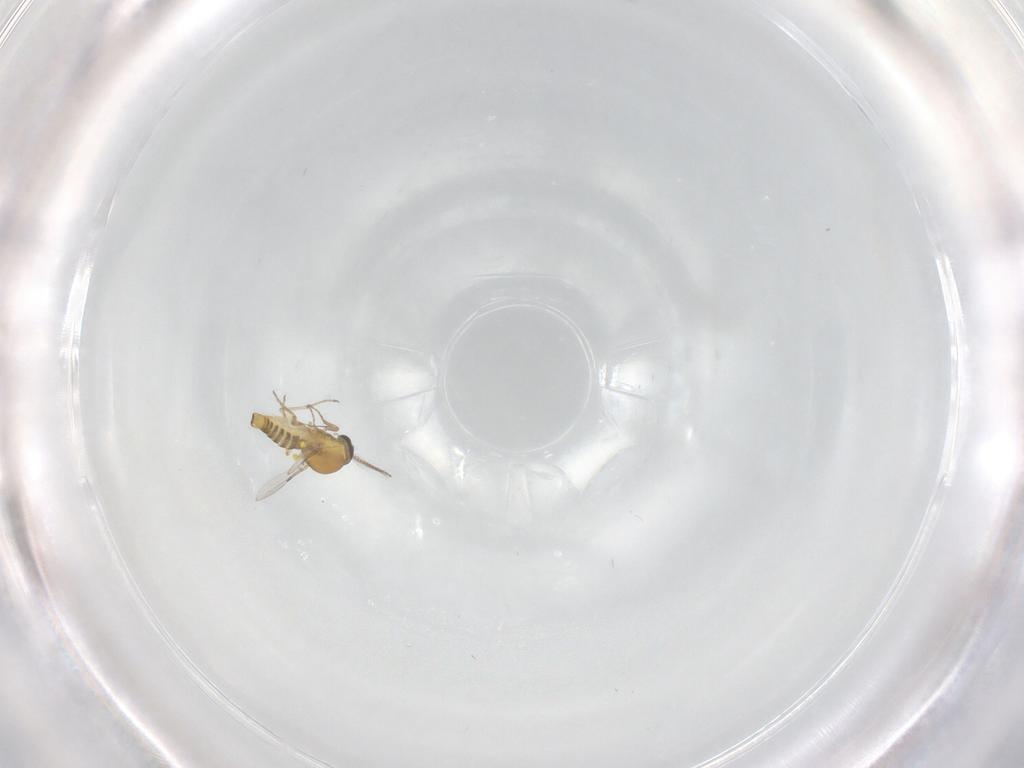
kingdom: Animalia
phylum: Arthropoda
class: Insecta
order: Diptera
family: Ceratopogonidae
